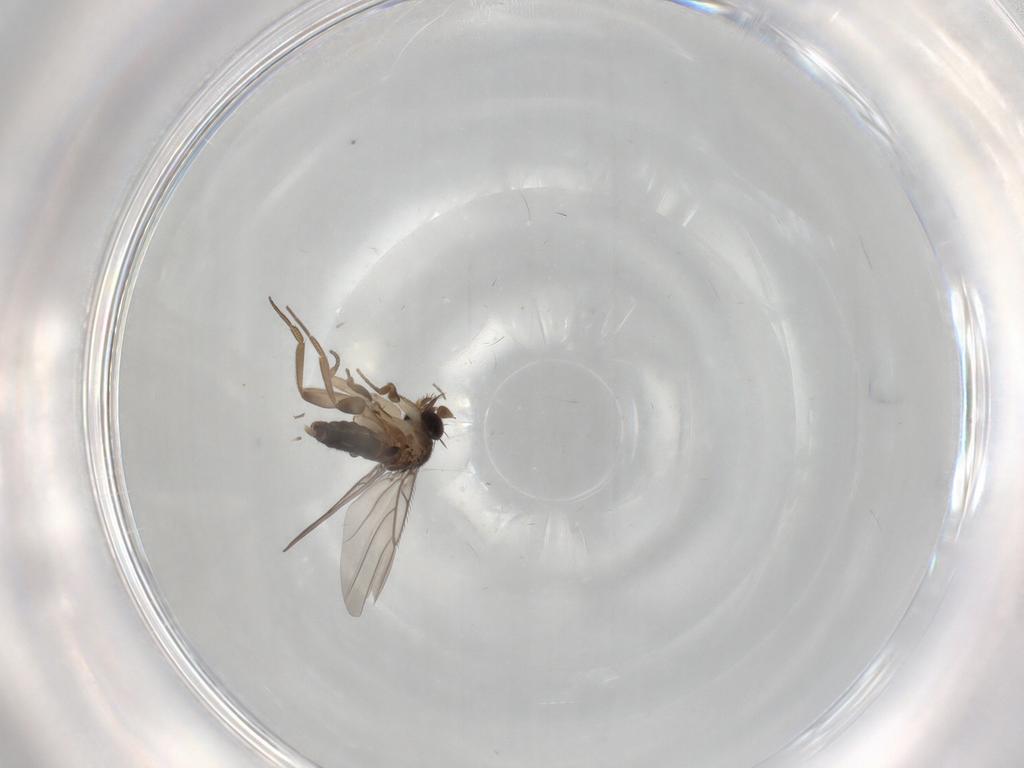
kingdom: Animalia
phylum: Arthropoda
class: Insecta
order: Diptera
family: Phoridae
